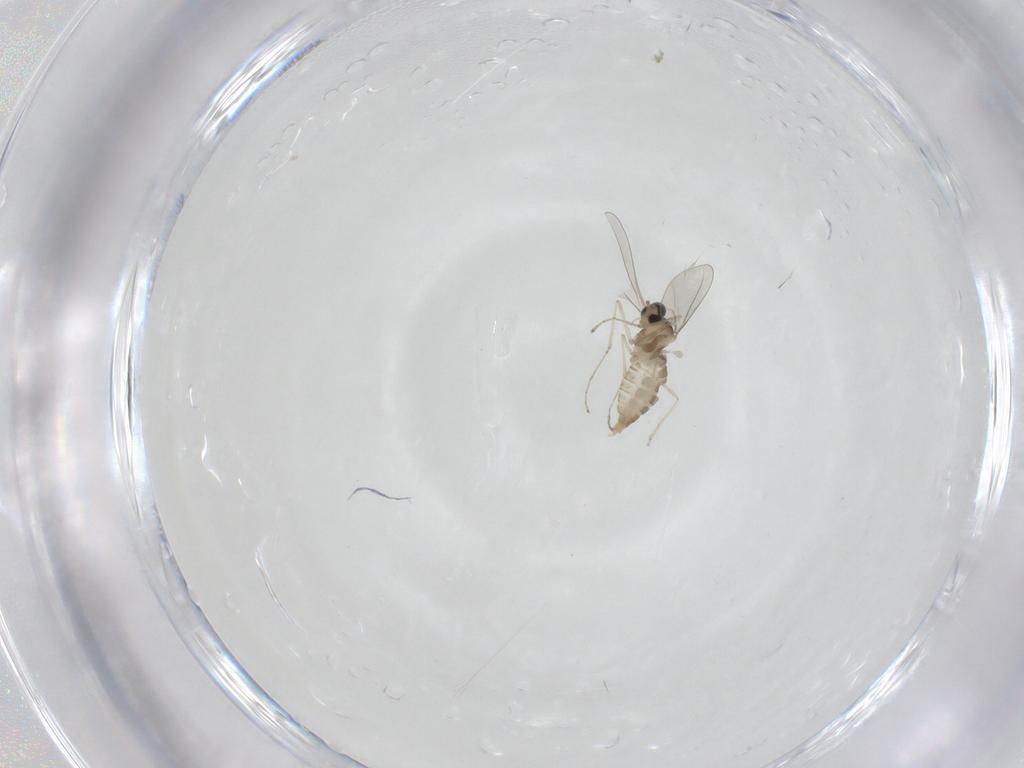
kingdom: Animalia
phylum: Arthropoda
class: Insecta
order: Diptera
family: Cecidomyiidae
